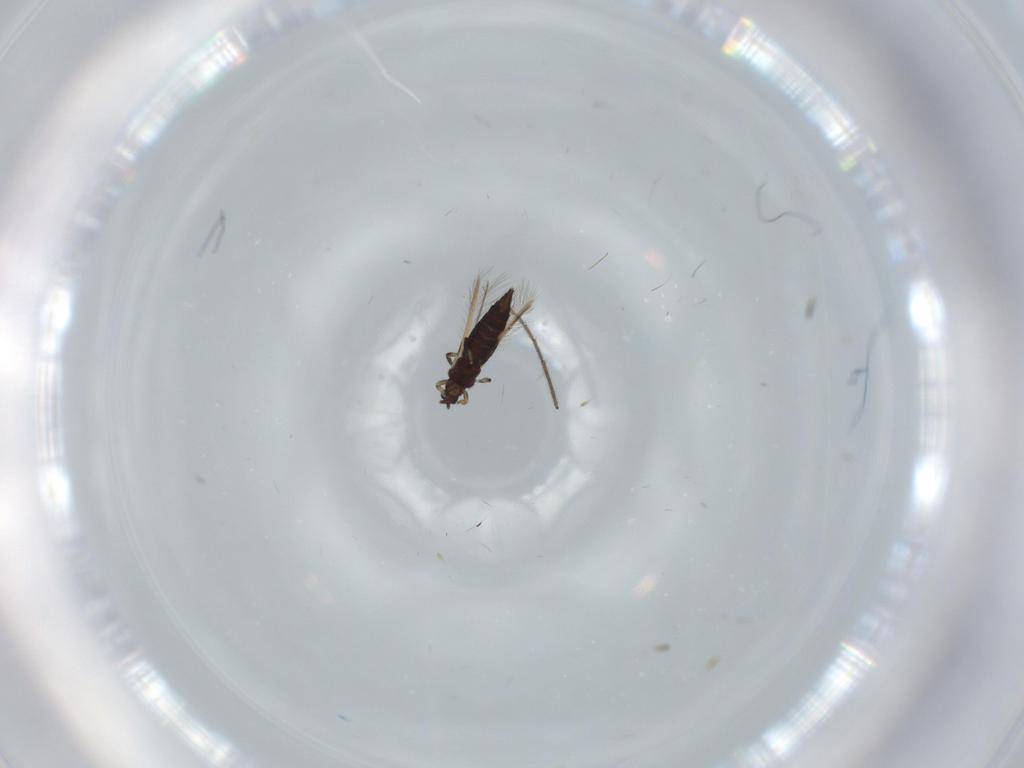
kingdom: Animalia
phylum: Arthropoda
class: Insecta
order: Thysanoptera
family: Thripidae
